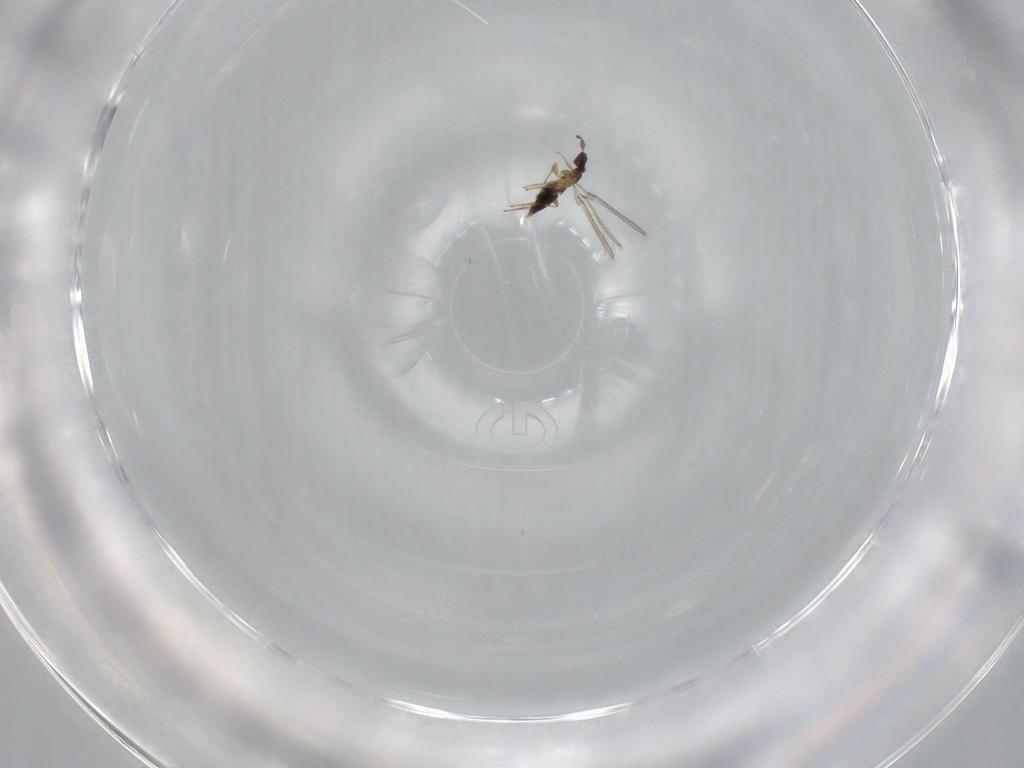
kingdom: Animalia
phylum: Arthropoda
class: Insecta
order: Hymenoptera
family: Mymaridae
